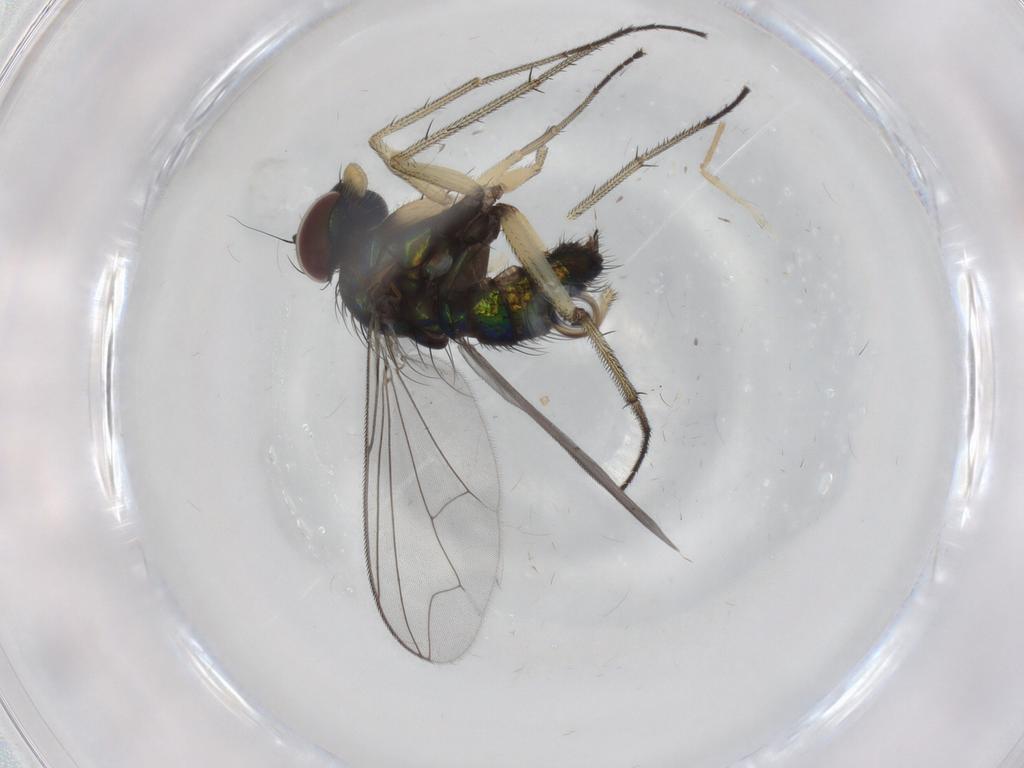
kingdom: Animalia
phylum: Arthropoda
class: Insecta
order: Diptera
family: Dolichopodidae
